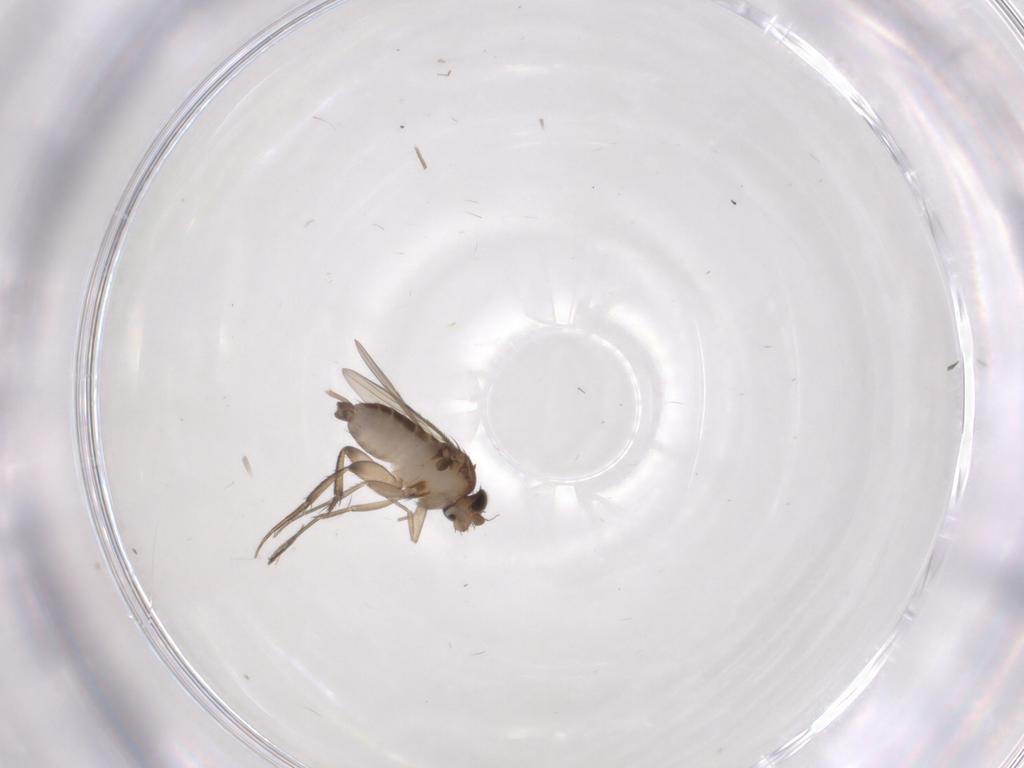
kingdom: Animalia
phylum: Arthropoda
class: Insecta
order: Diptera
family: Phoridae
